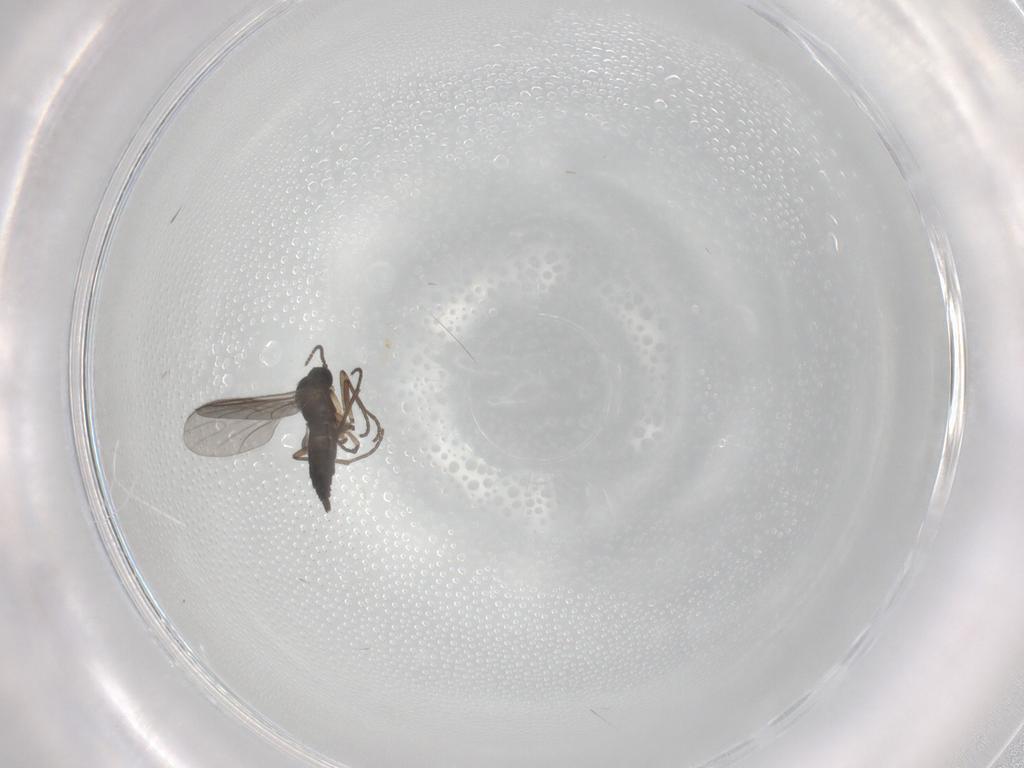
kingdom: Animalia
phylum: Arthropoda
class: Insecta
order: Diptera
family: Sciaridae
